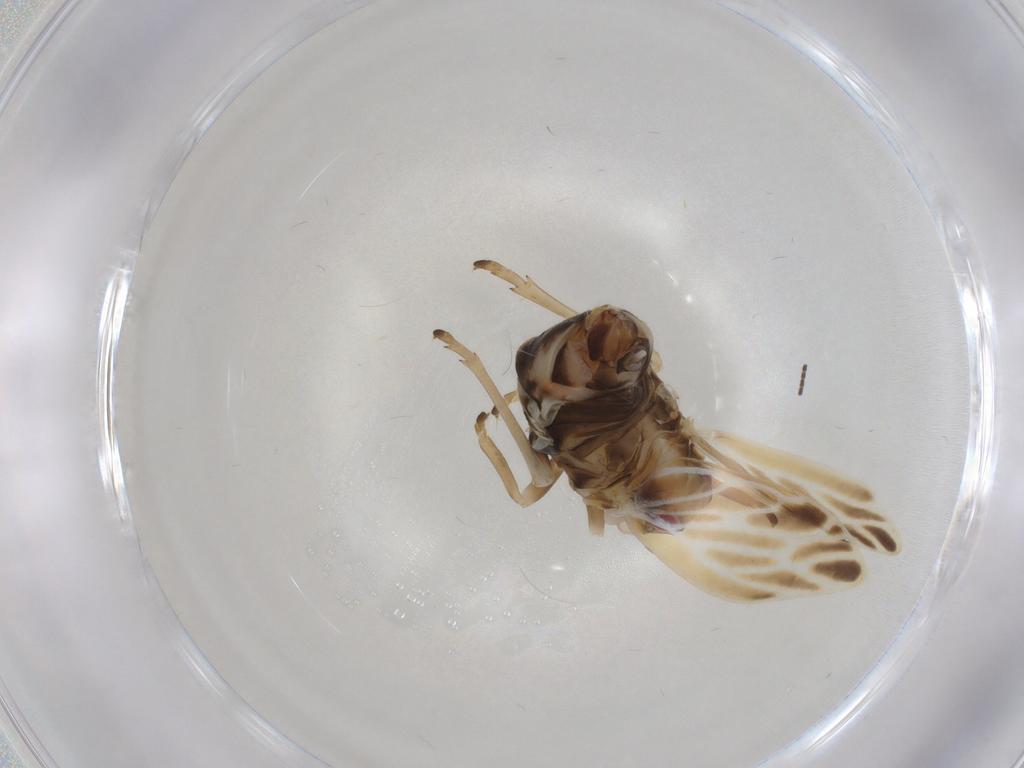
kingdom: Animalia
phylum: Arthropoda
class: Insecta
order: Hemiptera
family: Derbidae
